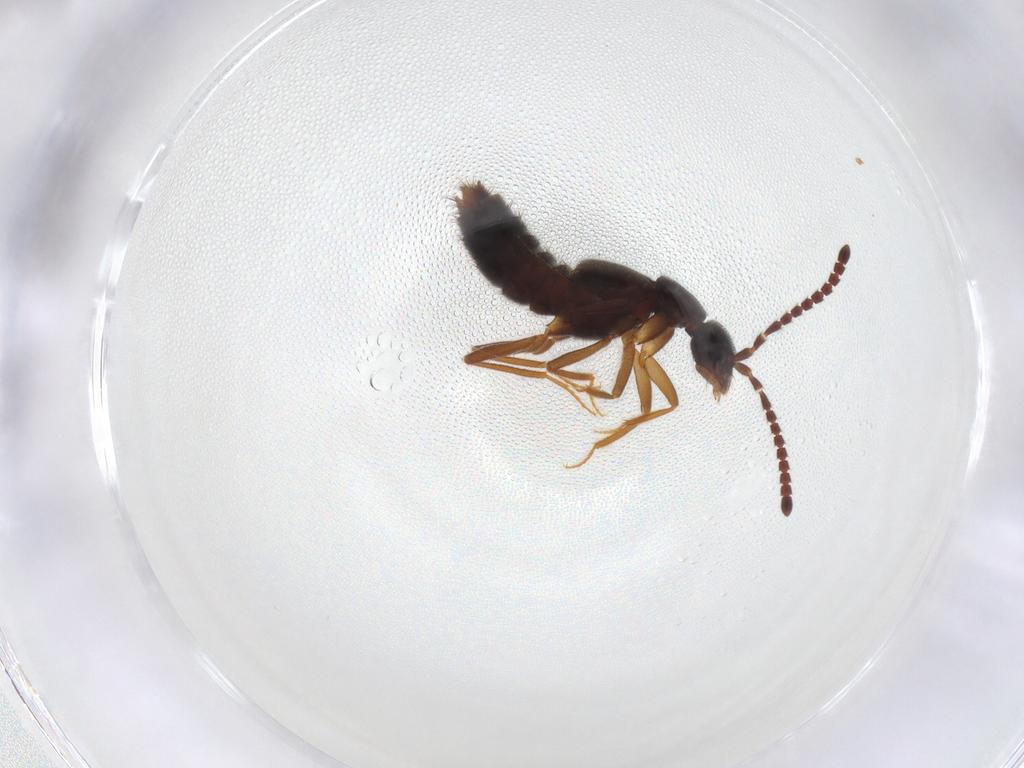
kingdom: Animalia
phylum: Arthropoda
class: Insecta
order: Coleoptera
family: Staphylinidae
